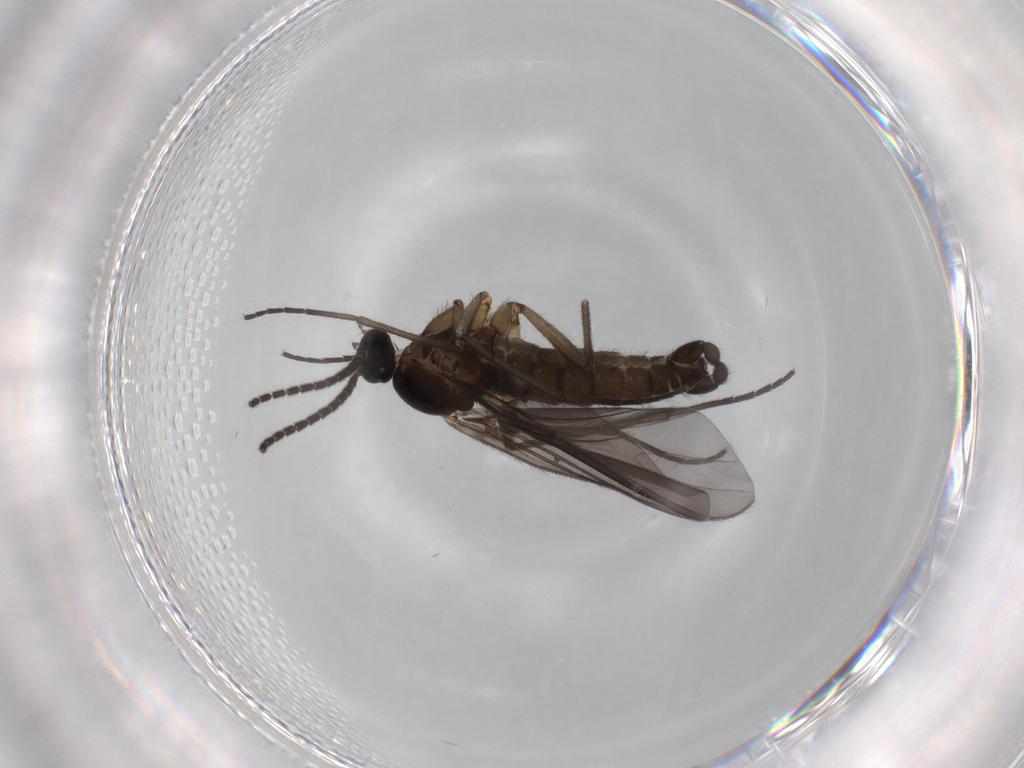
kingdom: Animalia
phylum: Arthropoda
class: Insecta
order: Diptera
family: Sciaridae
